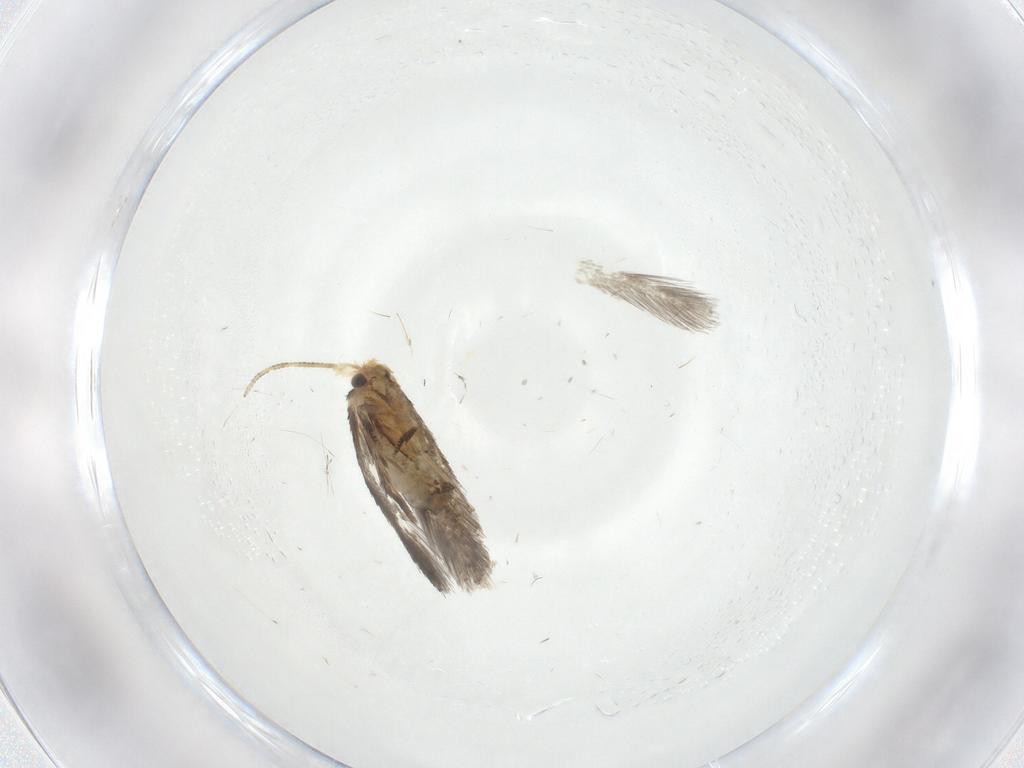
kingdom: Animalia
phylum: Arthropoda
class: Insecta
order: Lepidoptera
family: Nepticulidae
